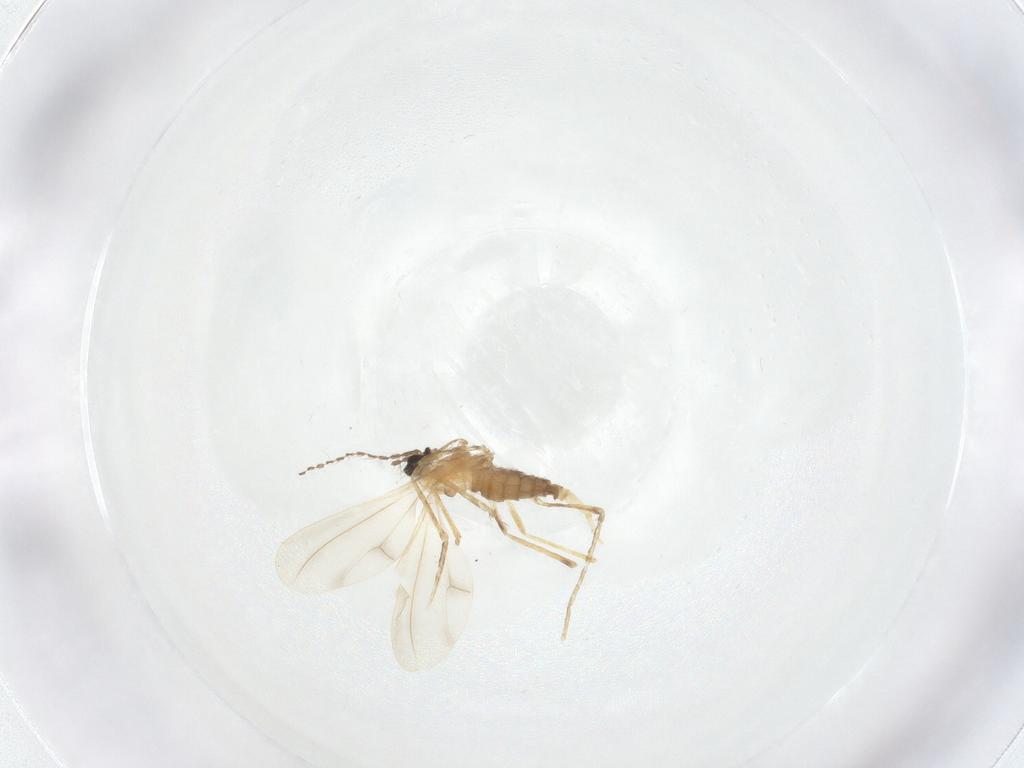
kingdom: Animalia
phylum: Arthropoda
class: Insecta
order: Diptera
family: Cecidomyiidae
